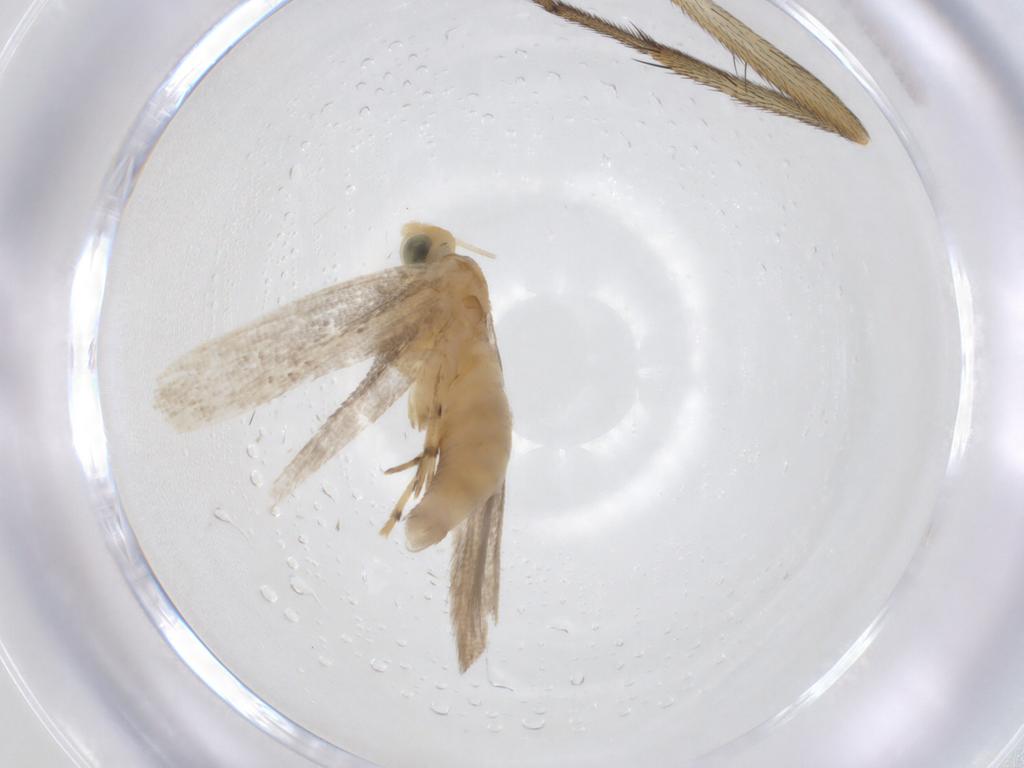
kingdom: Animalia
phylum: Arthropoda
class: Insecta
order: Lepidoptera
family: Argyresthiidae
